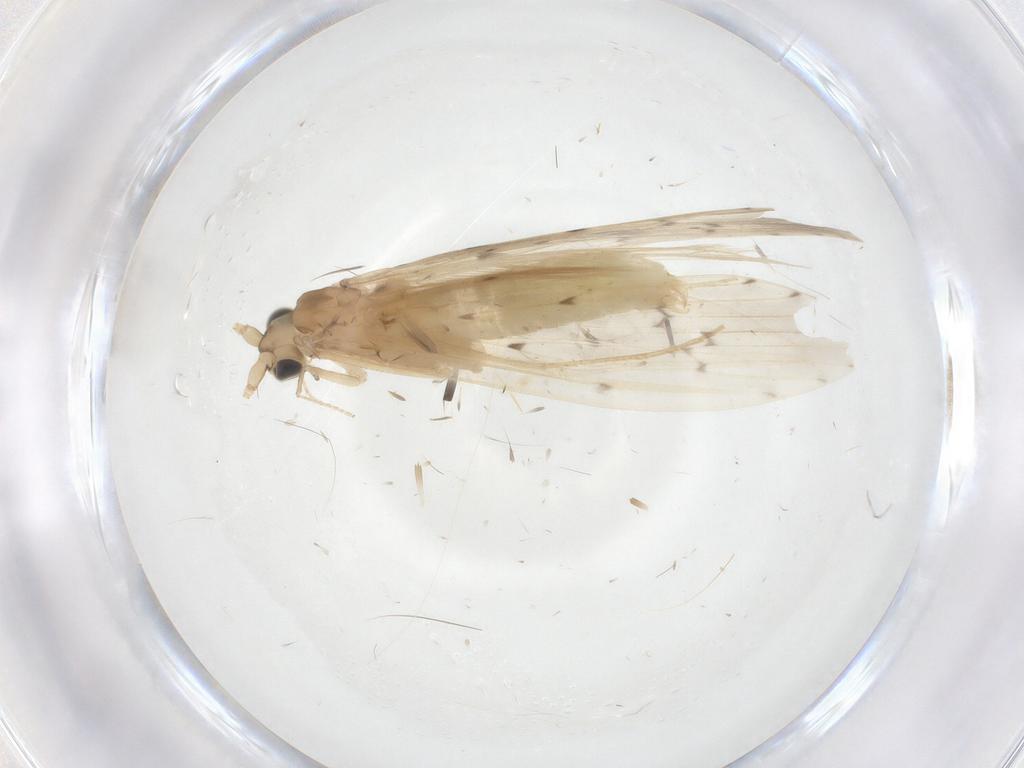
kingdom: Animalia
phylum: Arthropoda
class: Insecta
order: Trichoptera
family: Leptoceridae
